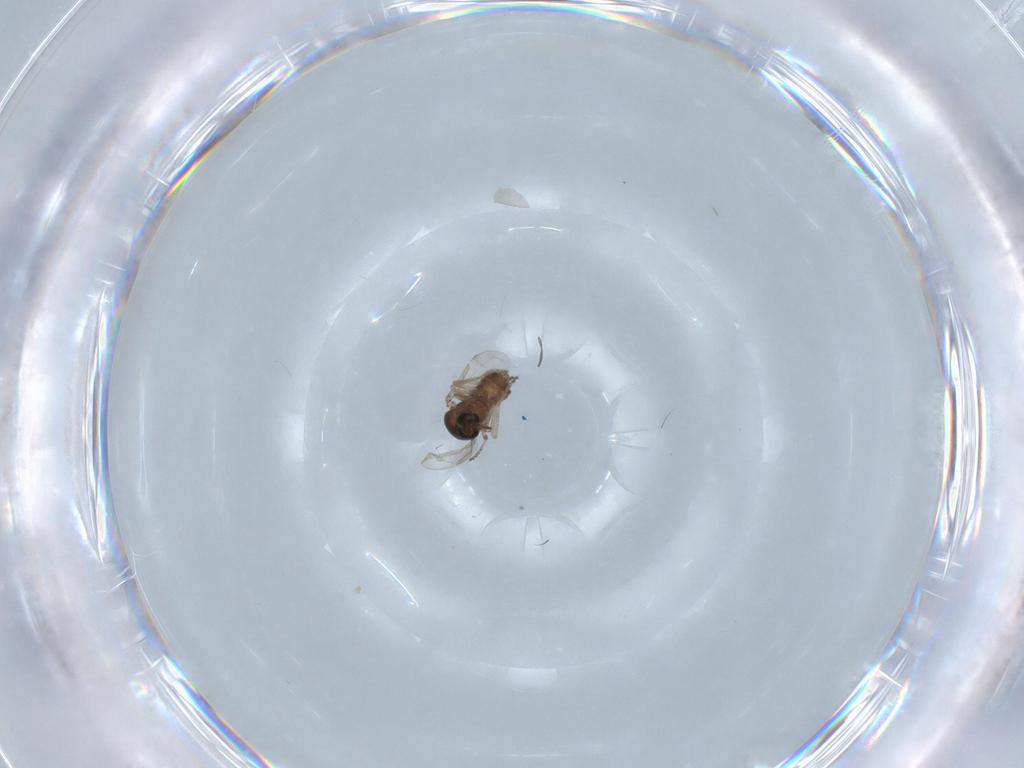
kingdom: Animalia
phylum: Arthropoda
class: Insecta
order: Diptera
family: Ceratopogonidae
